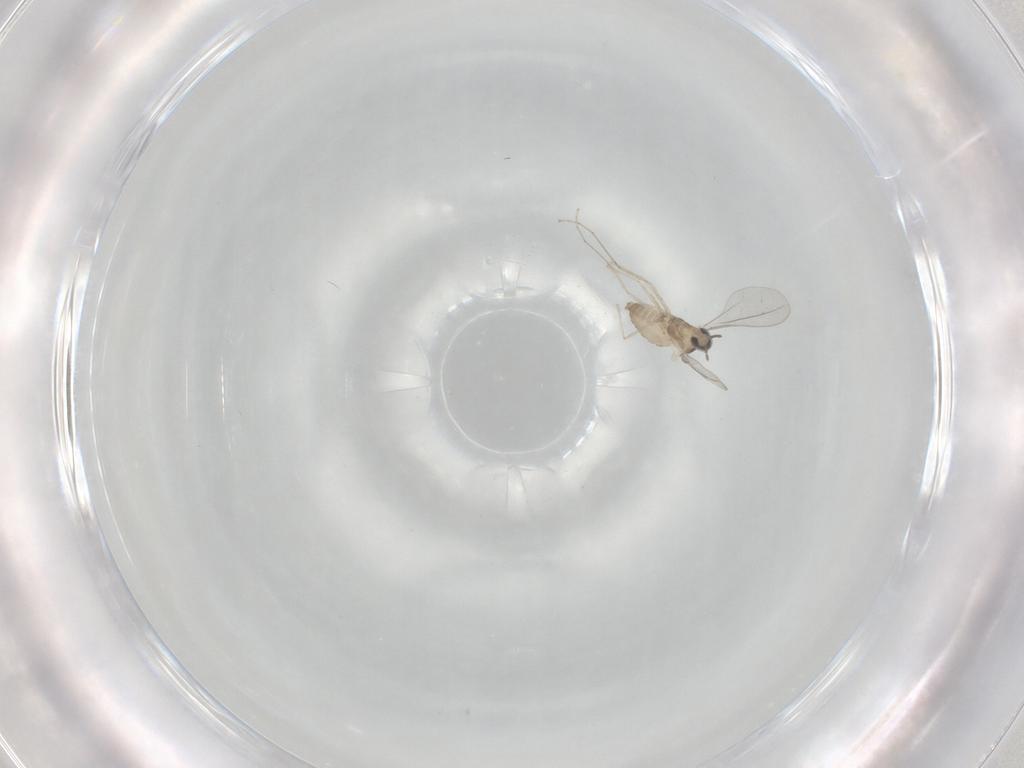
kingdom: Animalia
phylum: Arthropoda
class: Insecta
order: Diptera
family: Cecidomyiidae
